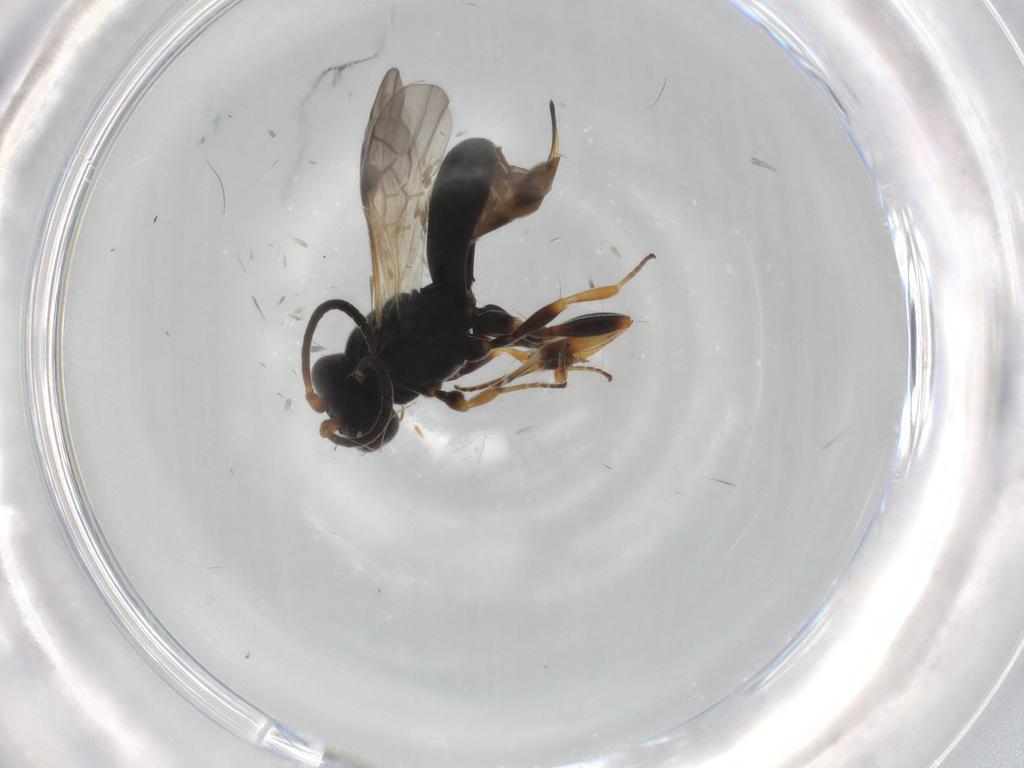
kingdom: Animalia
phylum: Arthropoda
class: Insecta
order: Hymenoptera
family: Braconidae
